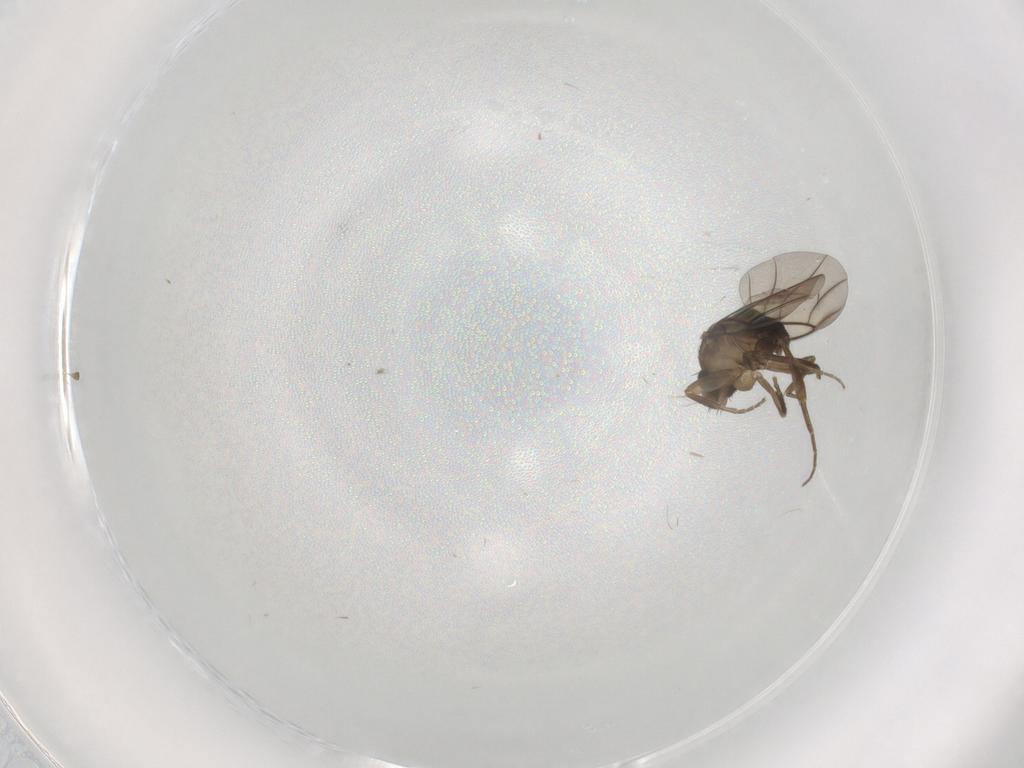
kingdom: Animalia
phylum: Arthropoda
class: Insecta
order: Diptera
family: Phoridae
